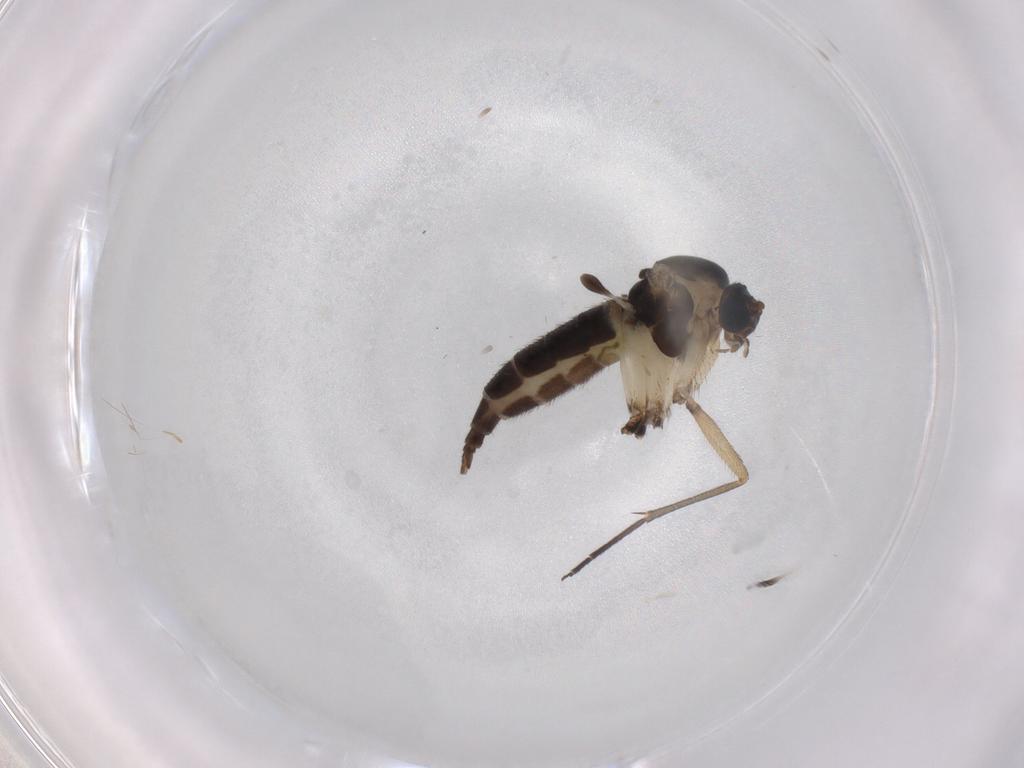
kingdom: Animalia
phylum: Arthropoda
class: Insecta
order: Diptera
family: Sciaridae
